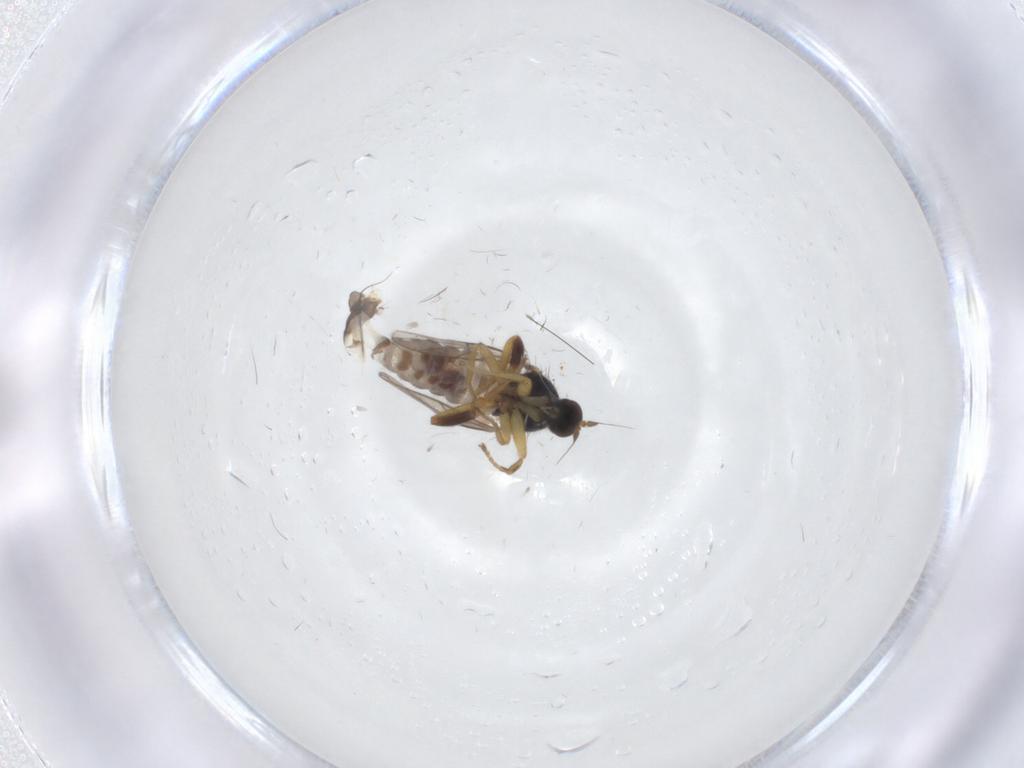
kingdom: Animalia
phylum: Arthropoda
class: Insecta
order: Diptera
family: Hybotidae
